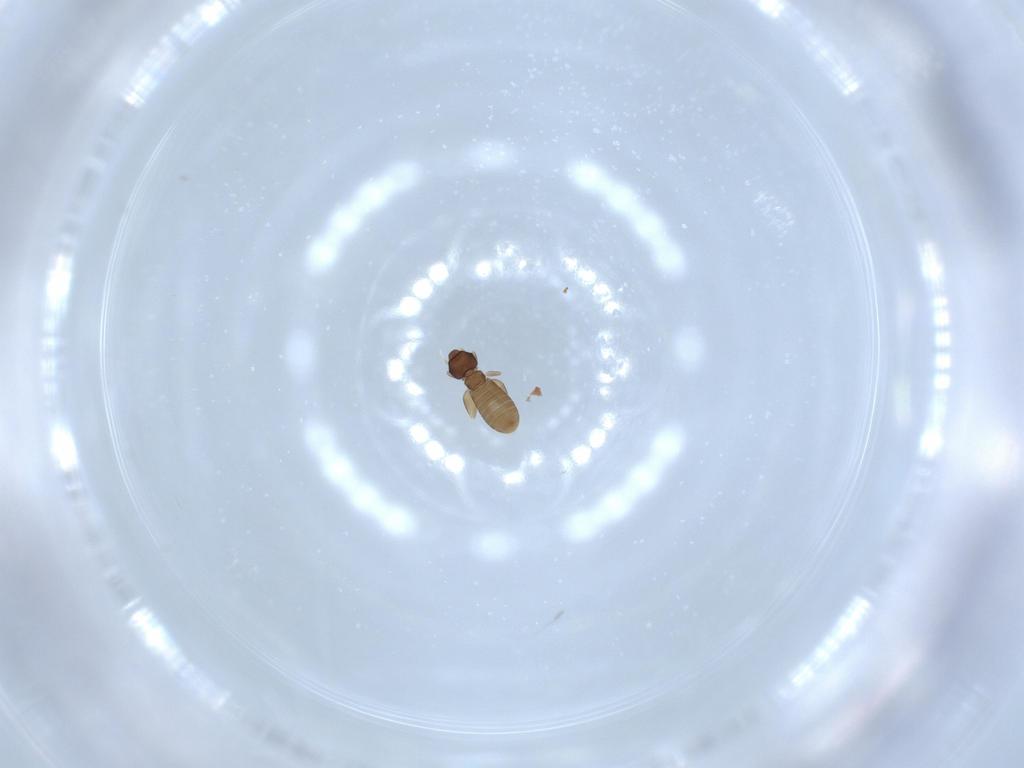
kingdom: Animalia
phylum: Arthropoda
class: Insecta
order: Psocodea
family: Liposcelididae
